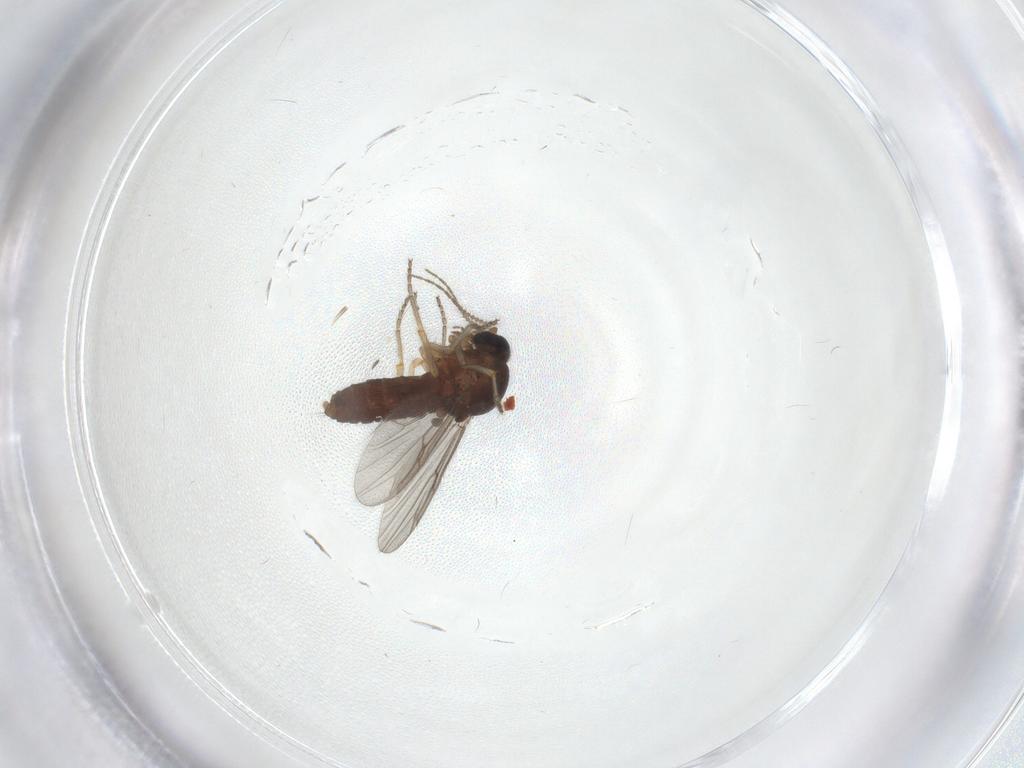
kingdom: Animalia
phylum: Arthropoda
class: Insecta
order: Diptera
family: Ceratopogonidae
